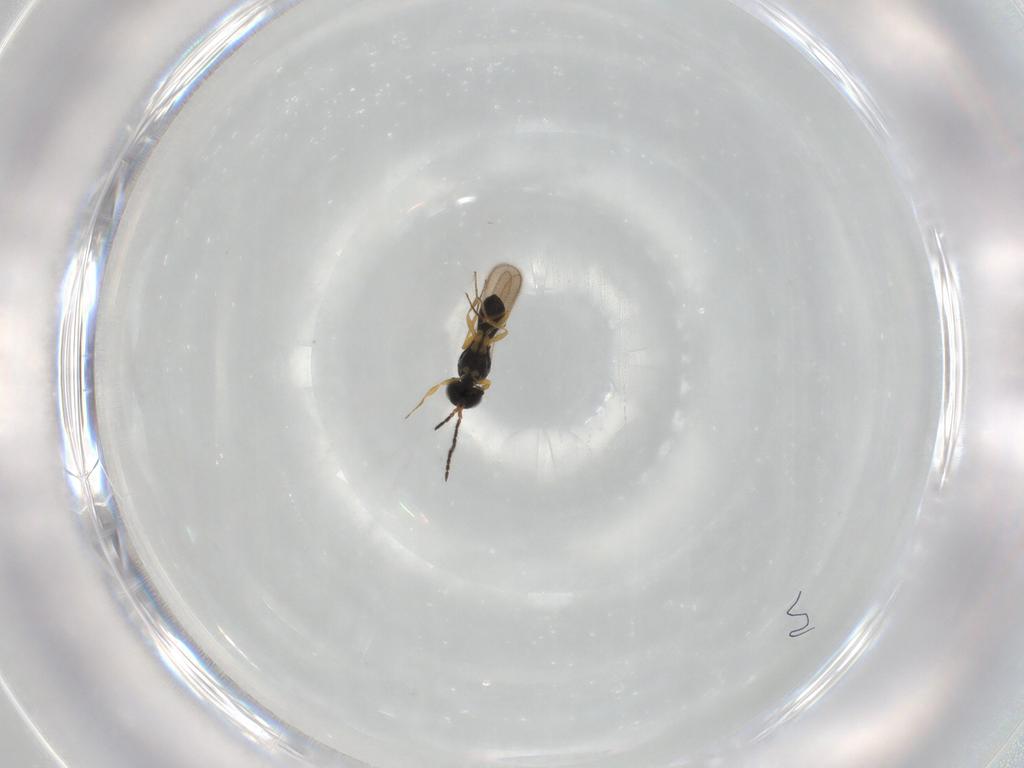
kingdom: Animalia
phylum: Arthropoda
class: Insecta
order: Hymenoptera
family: Scelionidae
